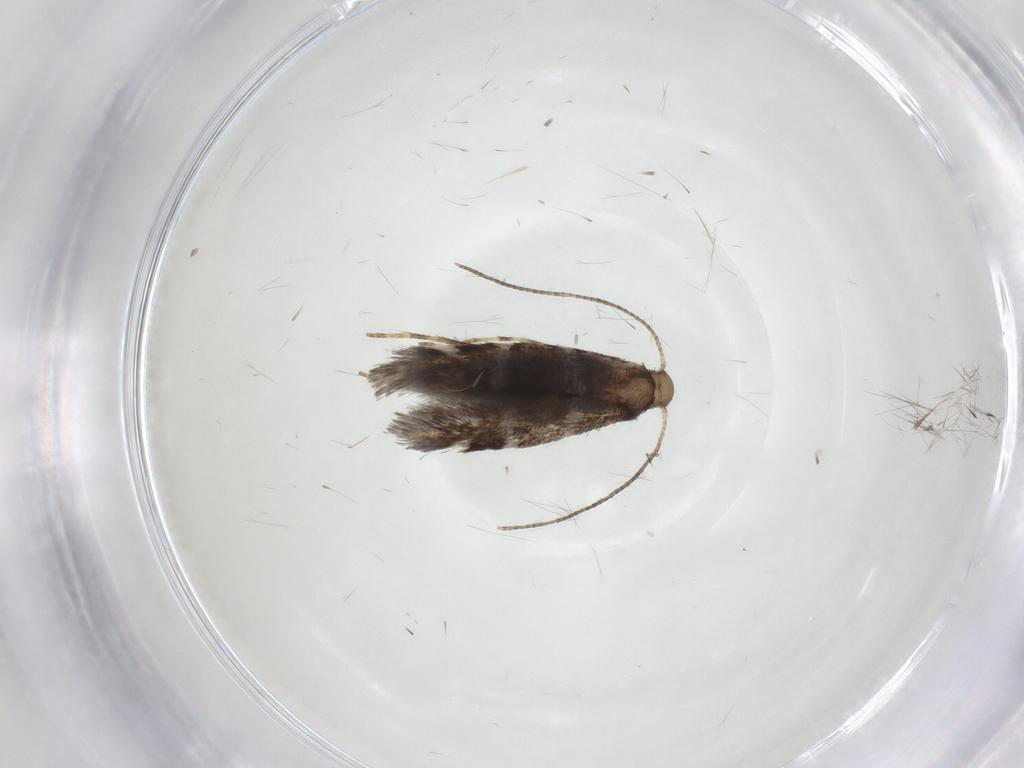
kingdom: Animalia
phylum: Arthropoda
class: Insecta
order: Lepidoptera
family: Gracillariidae
